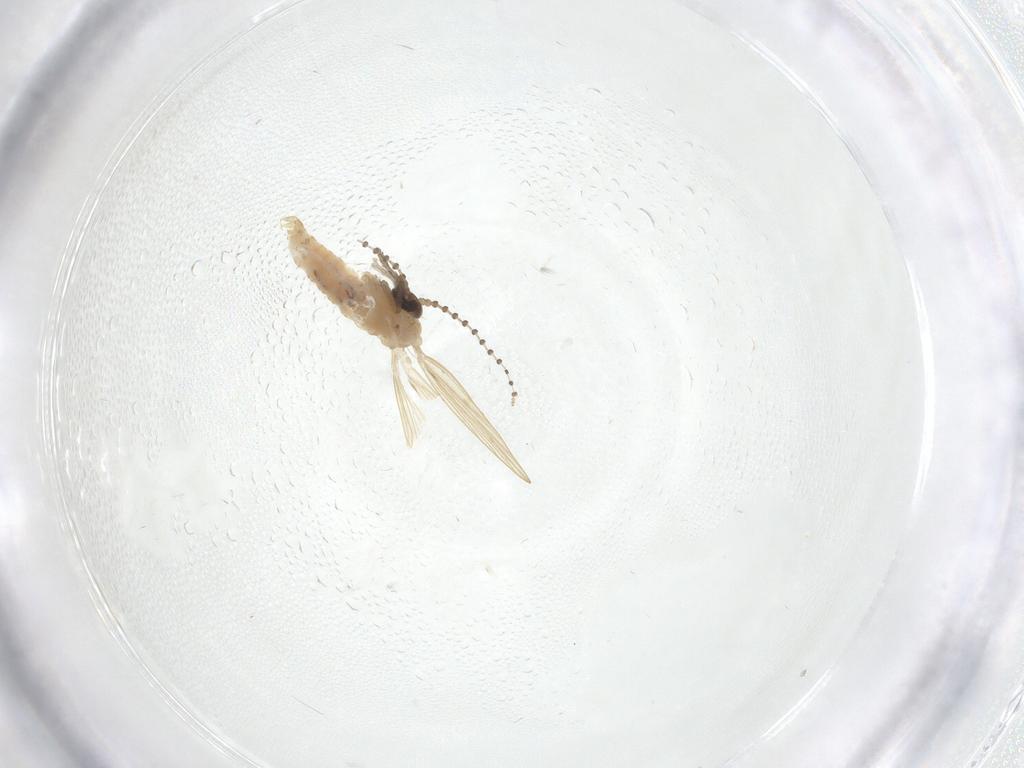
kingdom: Animalia
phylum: Arthropoda
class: Insecta
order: Diptera
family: Psychodidae
